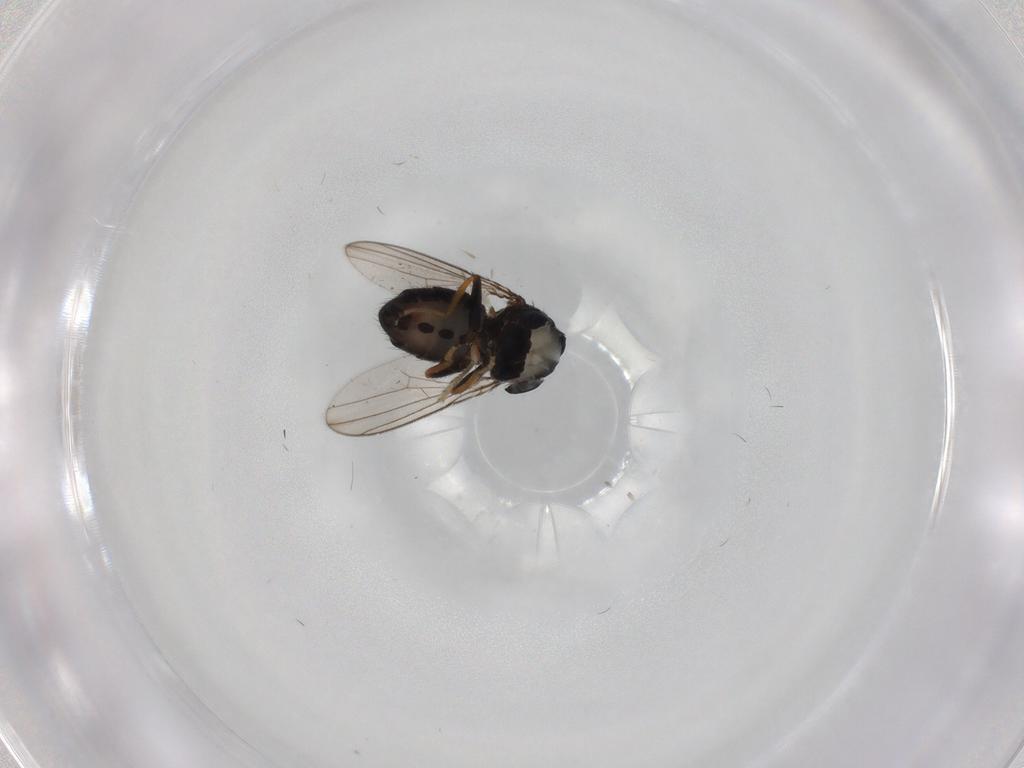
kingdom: Animalia
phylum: Arthropoda
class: Insecta
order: Diptera
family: Ephydridae
